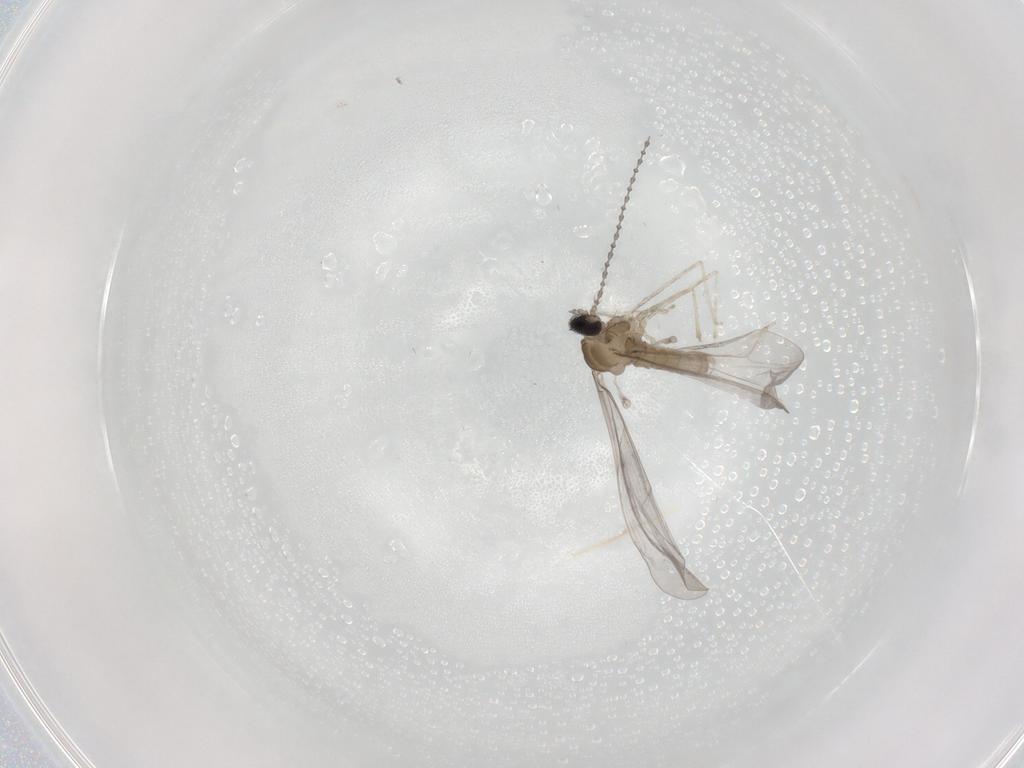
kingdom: Animalia
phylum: Arthropoda
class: Insecta
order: Diptera
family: Cecidomyiidae
